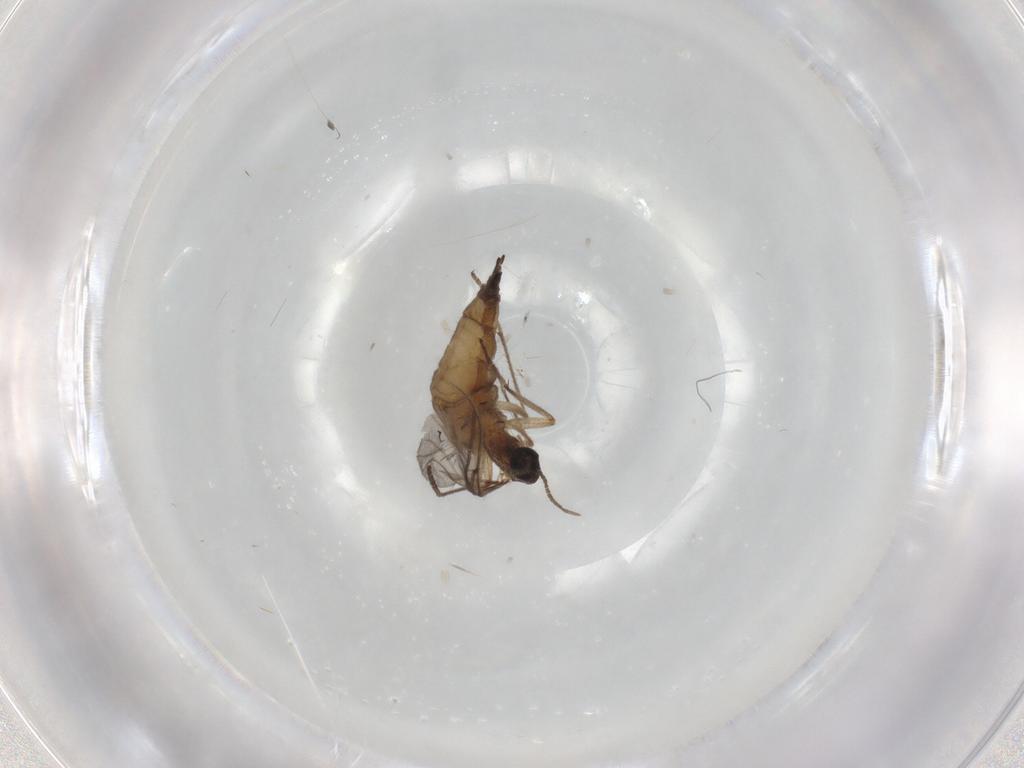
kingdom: Animalia
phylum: Arthropoda
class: Insecta
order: Diptera
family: Sciaridae
